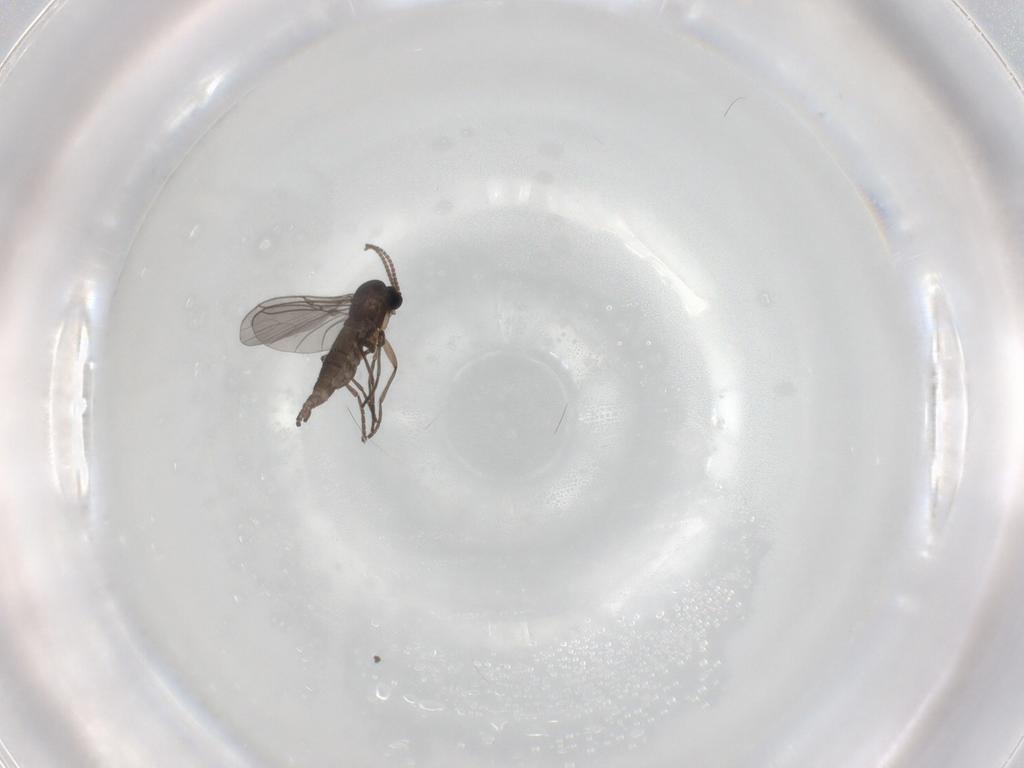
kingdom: Animalia
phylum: Arthropoda
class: Insecta
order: Diptera
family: Sciaridae
